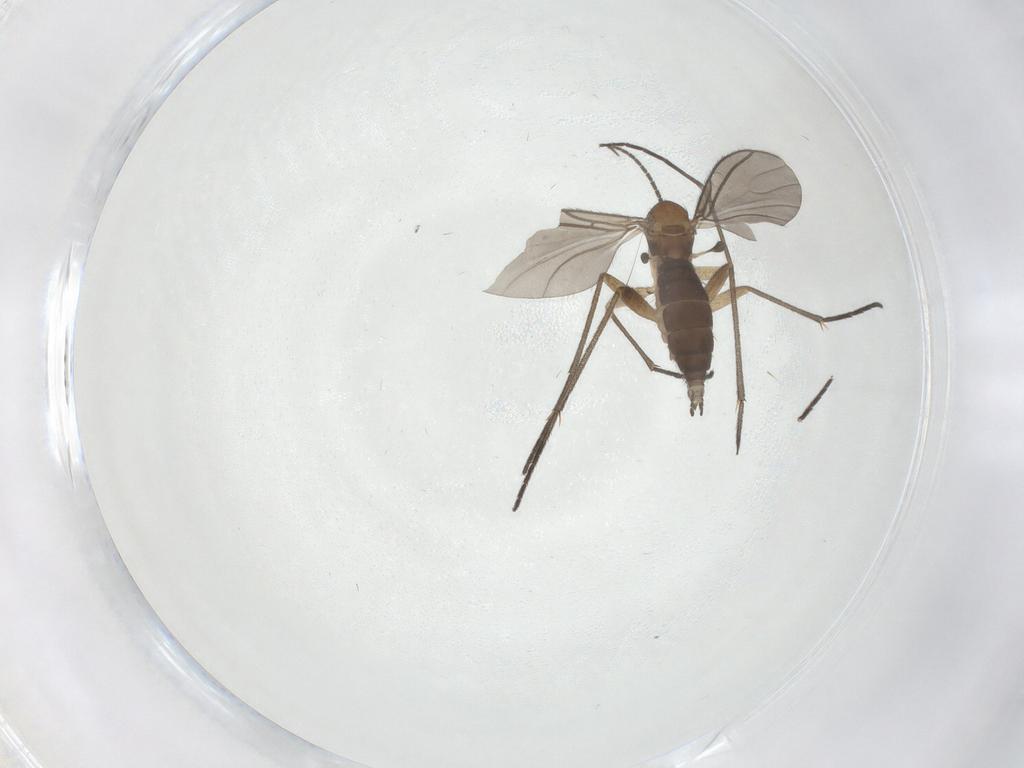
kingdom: Animalia
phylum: Arthropoda
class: Insecta
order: Diptera
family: Sciaridae
